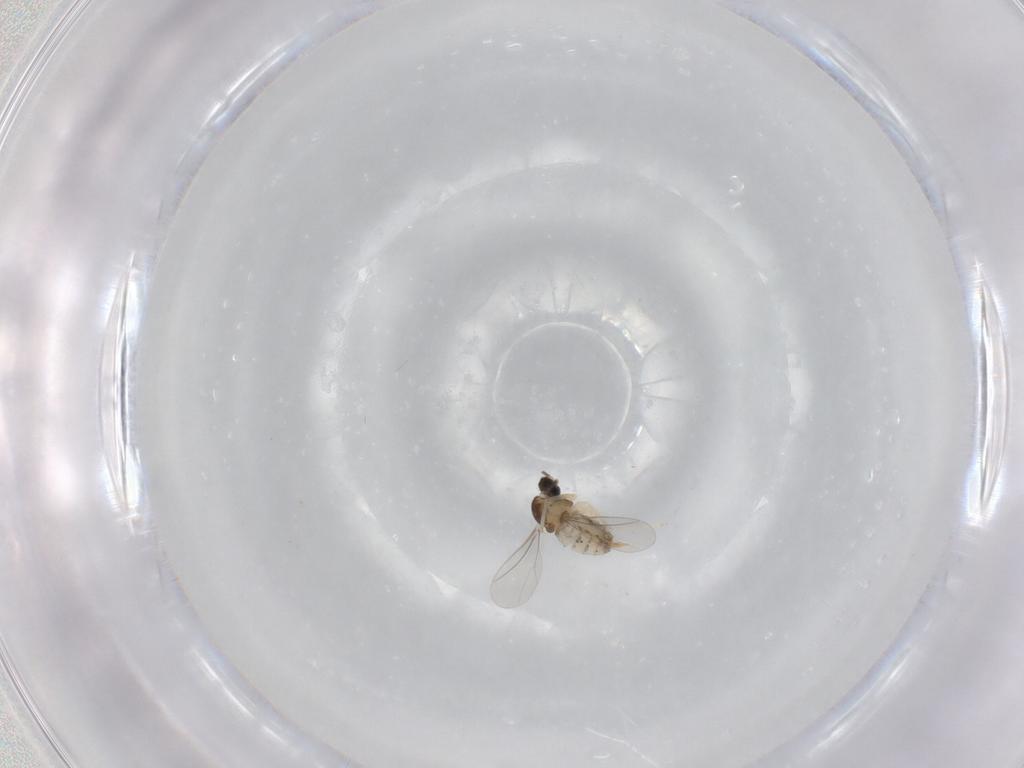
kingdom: Animalia
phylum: Arthropoda
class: Insecta
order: Diptera
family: Cecidomyiidae
